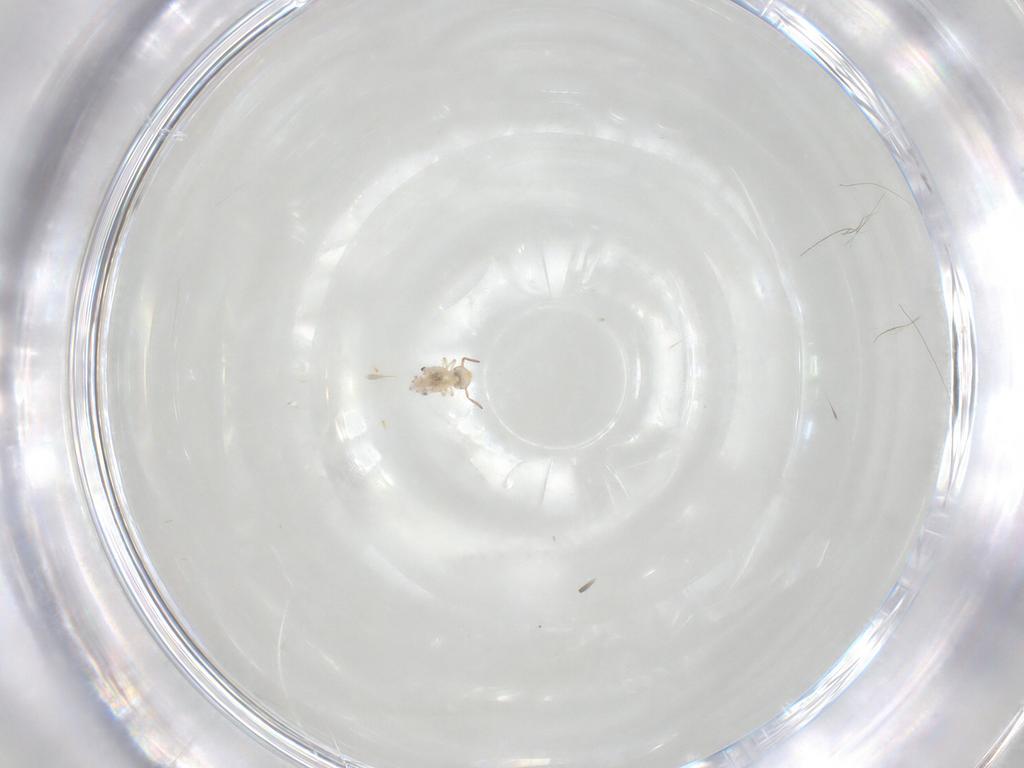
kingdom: Animalia
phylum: Arthropoda
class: Collembola
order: Symphypleona
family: Bourletiellidae
